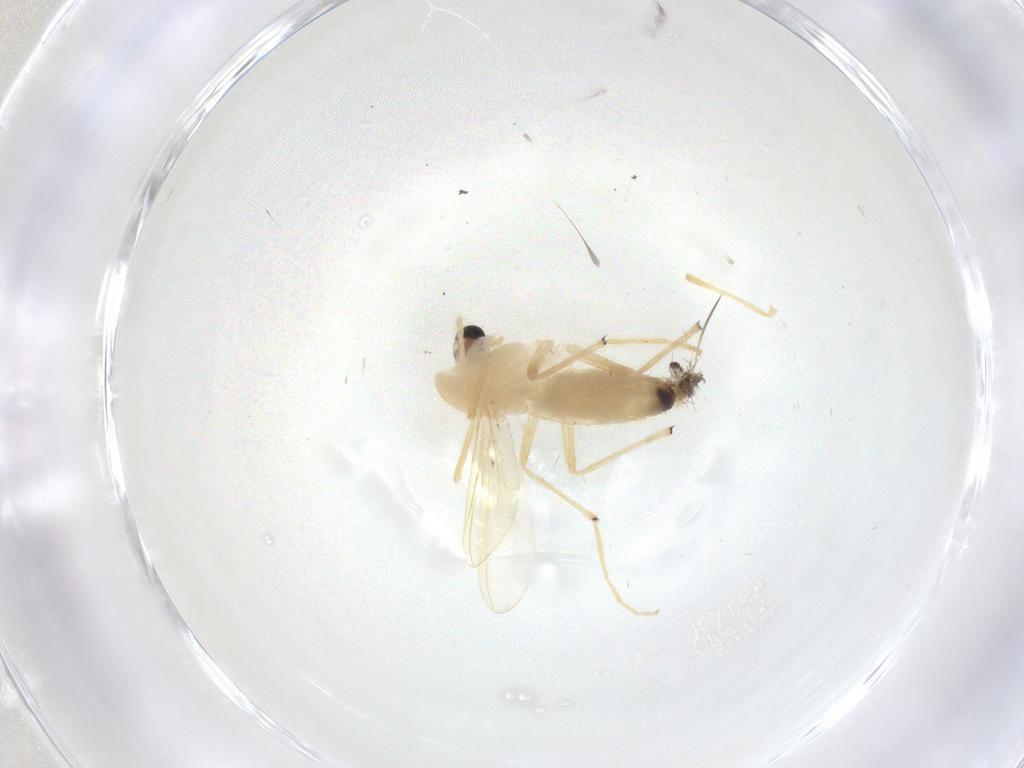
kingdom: Animalia
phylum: Arthropoda
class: Insecta
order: Diptera
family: Chironomidae
